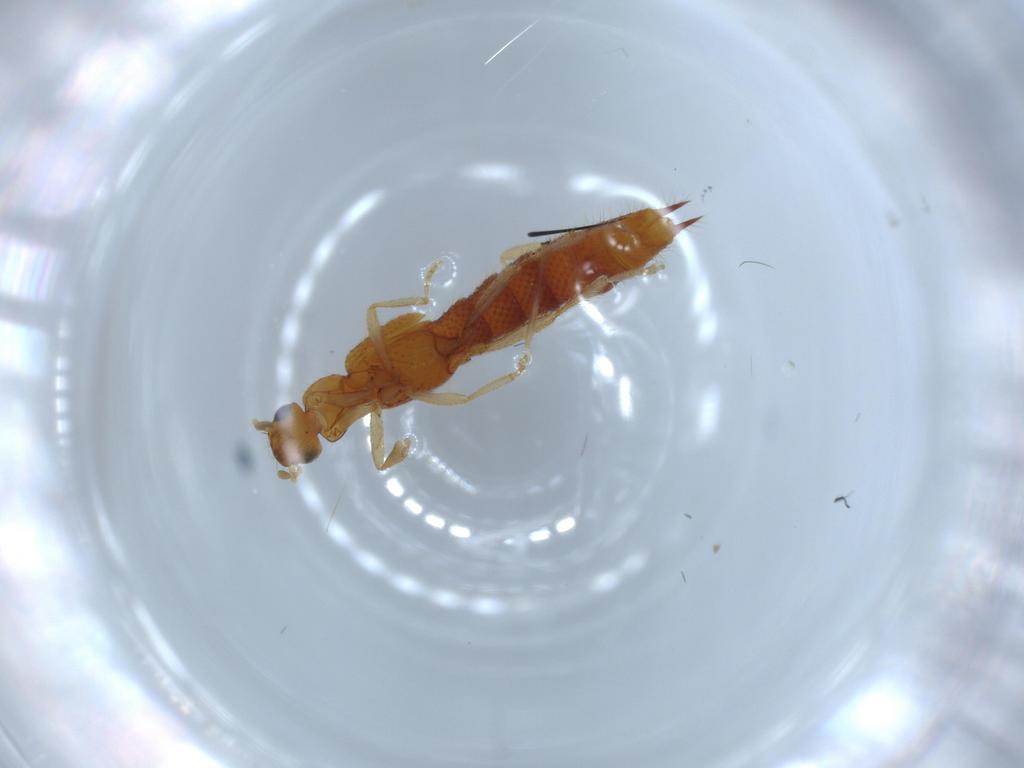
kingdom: Animalia
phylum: Arthropoda
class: Insecta
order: Coleoptera
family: Staphylinidae
